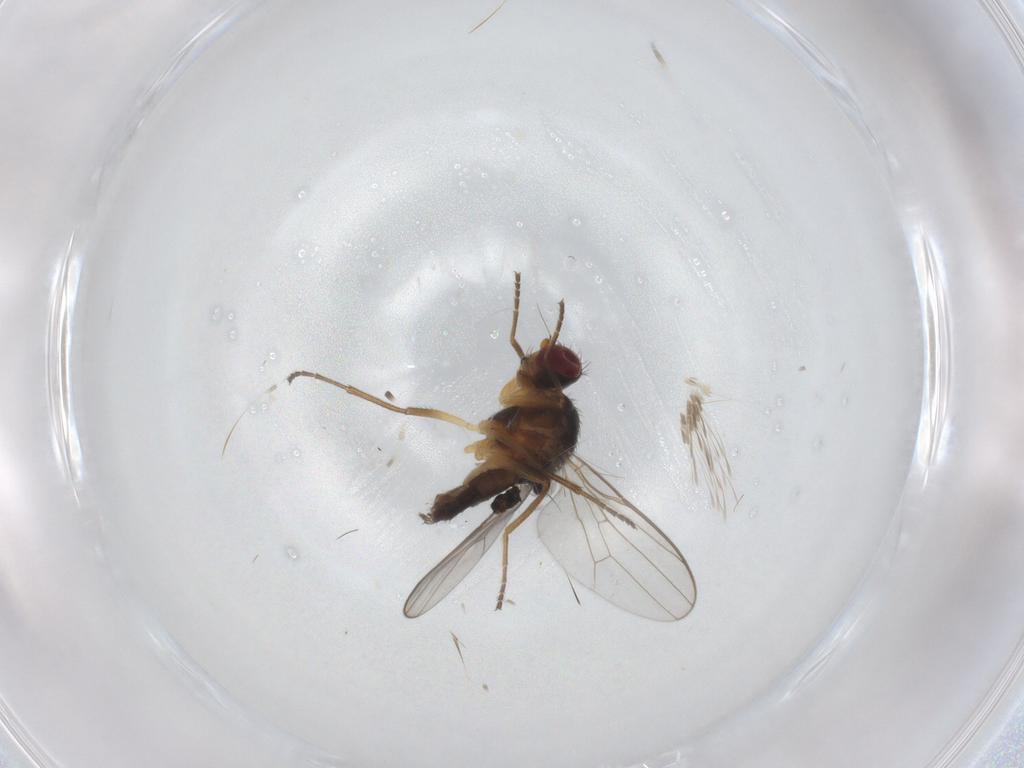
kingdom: Animalia
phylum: Arthropoda
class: Insecta
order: Diptera
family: Chloropidae
